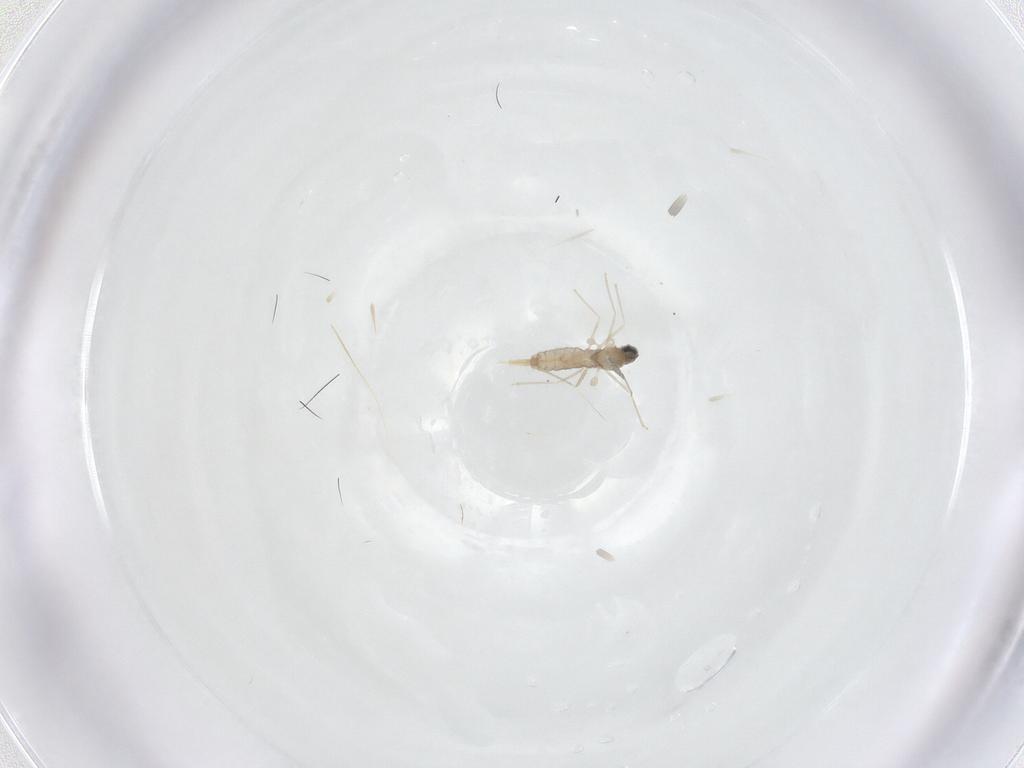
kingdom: Animalia
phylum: Arthropoda
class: Insecta
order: Diptera
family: Cecidomyiidae
